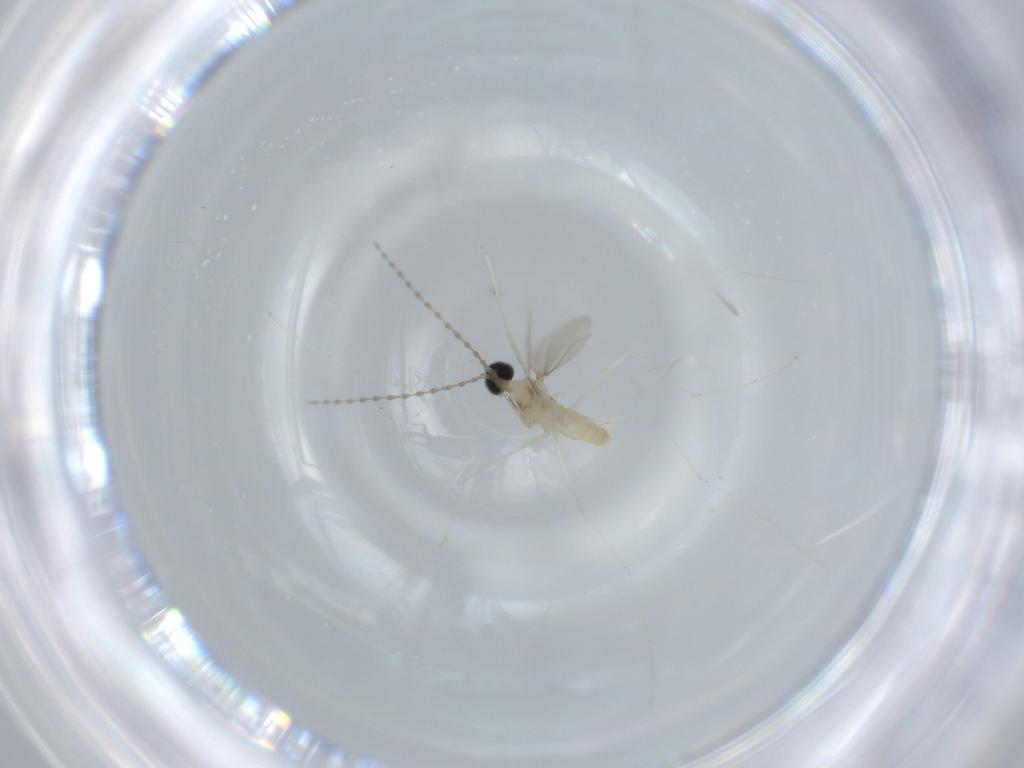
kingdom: Animalia
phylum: Arthropoda
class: Insecta
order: Diptera
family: Cecidomyiidae
